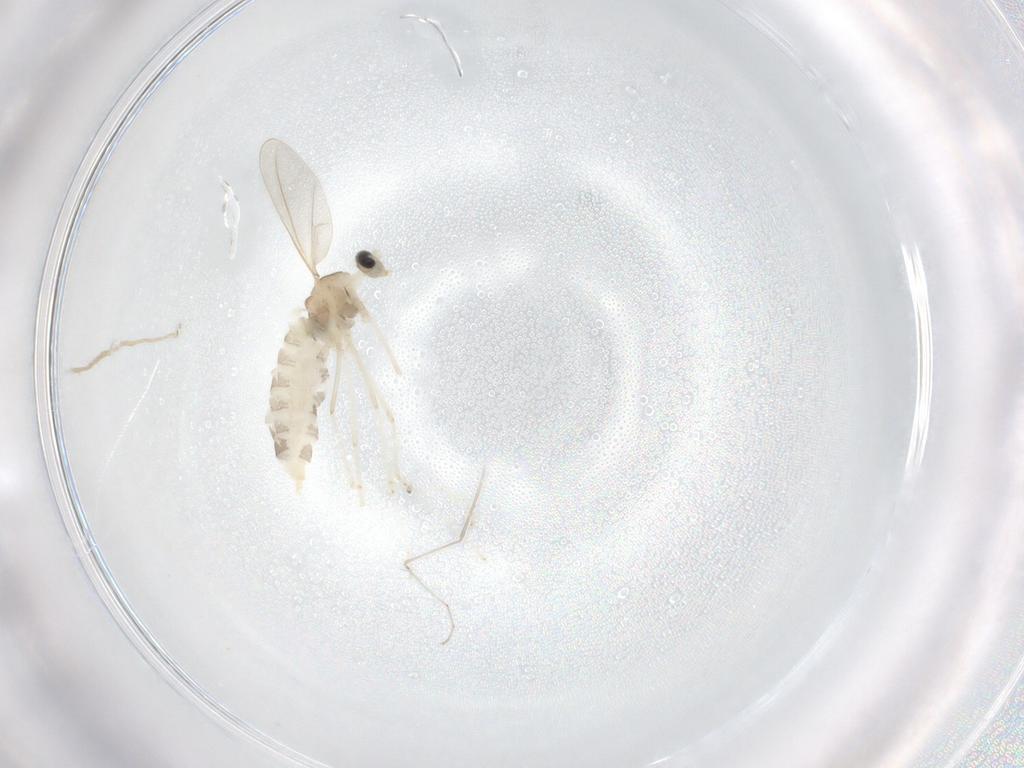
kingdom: Animalia
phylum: Arthropoda
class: Insecta
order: Diptera
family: Cecidomyiidae
